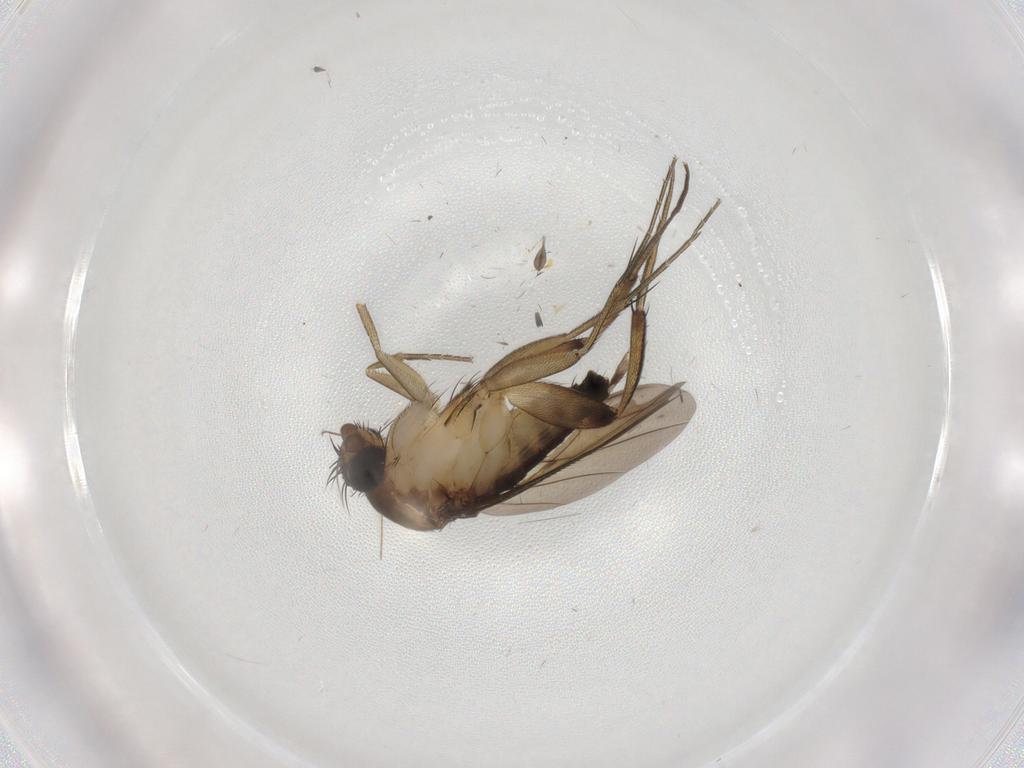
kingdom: Animalia
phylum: Arthropoda
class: Insecta
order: Diptera
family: Sciaridae
